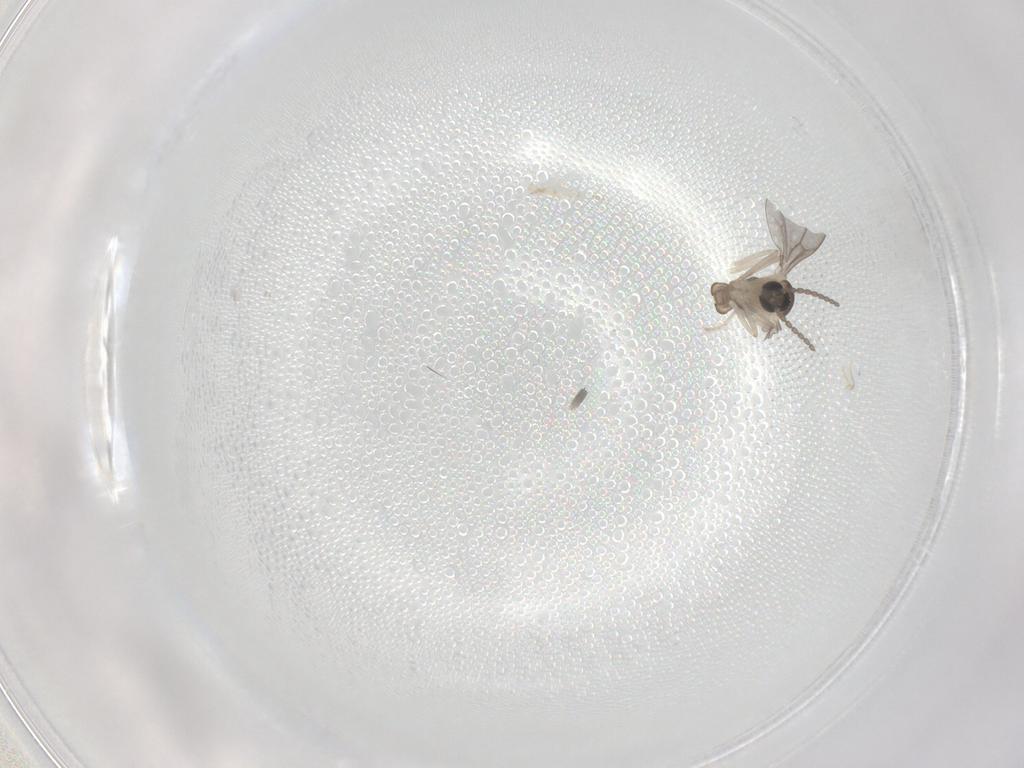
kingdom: Animalia
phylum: Arthropoda
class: Insecta
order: Diptera
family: Cecidomyiidae
